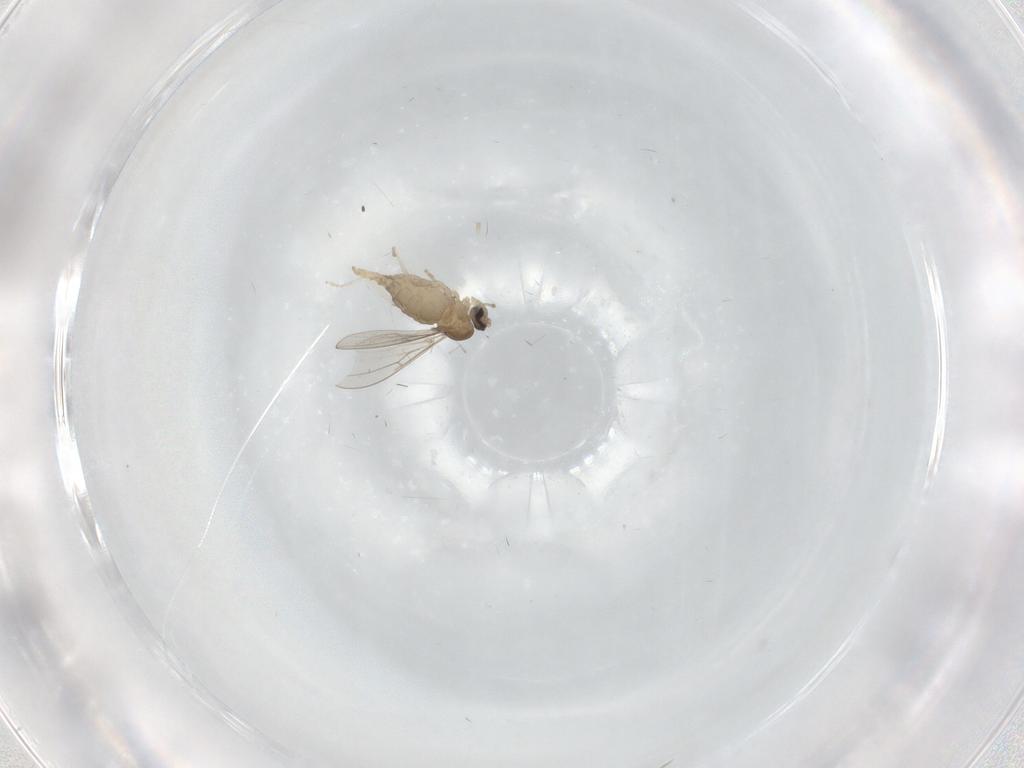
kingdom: Animalia
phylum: Arthropoda
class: Insecta
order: Diptera
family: Cecidomyiidae
